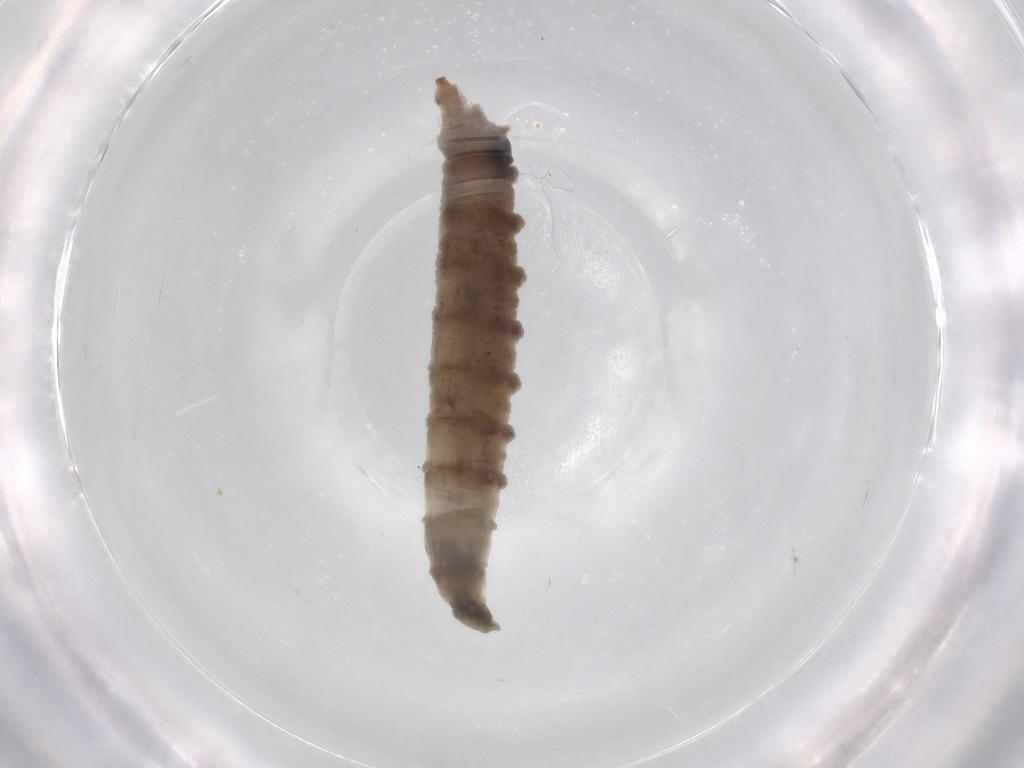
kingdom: Animalia
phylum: Arthropoda
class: Insecta
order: Diptera
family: Drosophilidae
